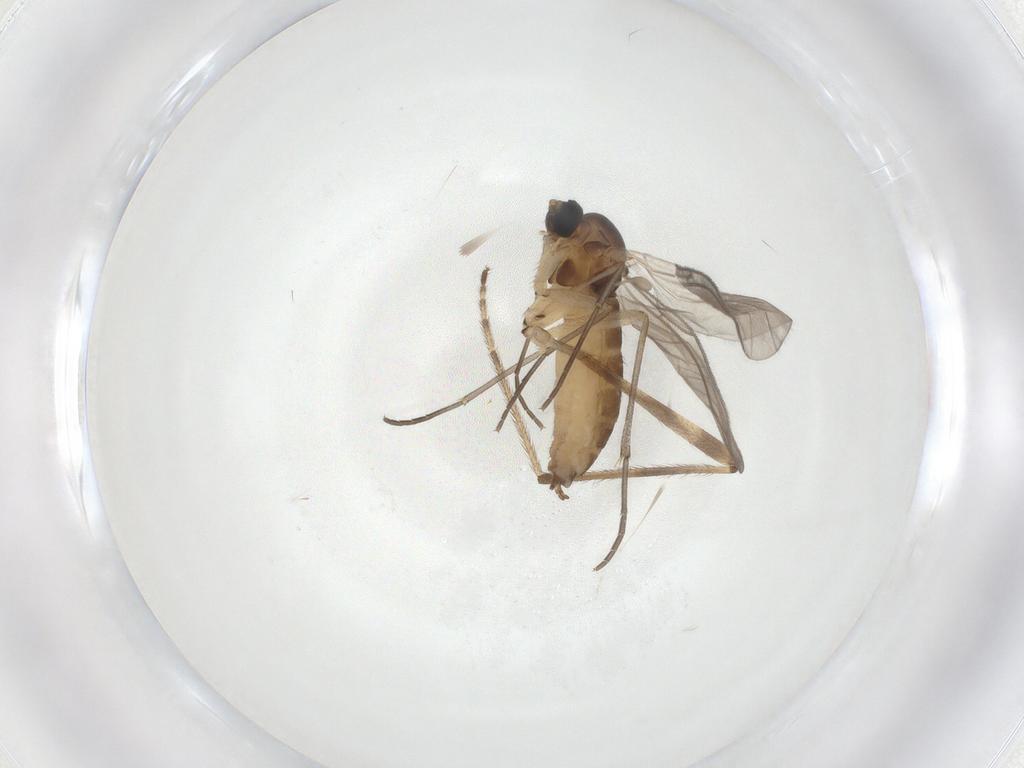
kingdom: Animalia
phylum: Arthropoda
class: Insecta
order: Diptera
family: Sciaridae
